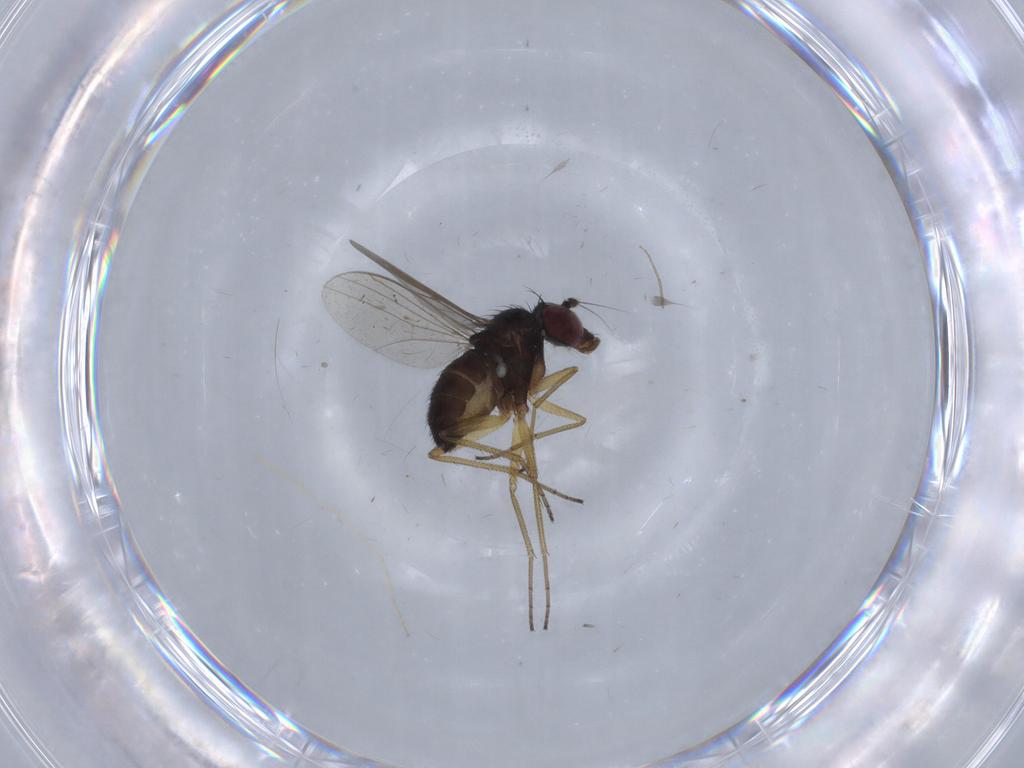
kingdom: Animalia
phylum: Arthropoda
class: Insecta
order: Diptera
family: Dolichopodidae
